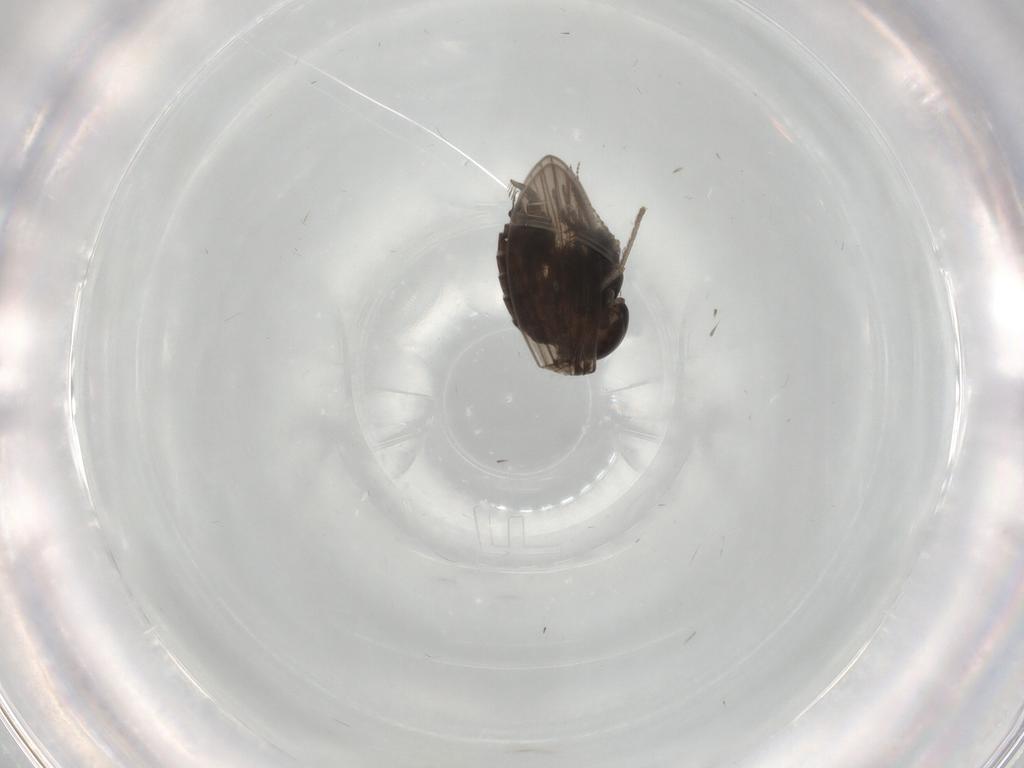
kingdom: Animalia
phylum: Arthropoda
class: Insecta
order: Diptera
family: Psychodidae
